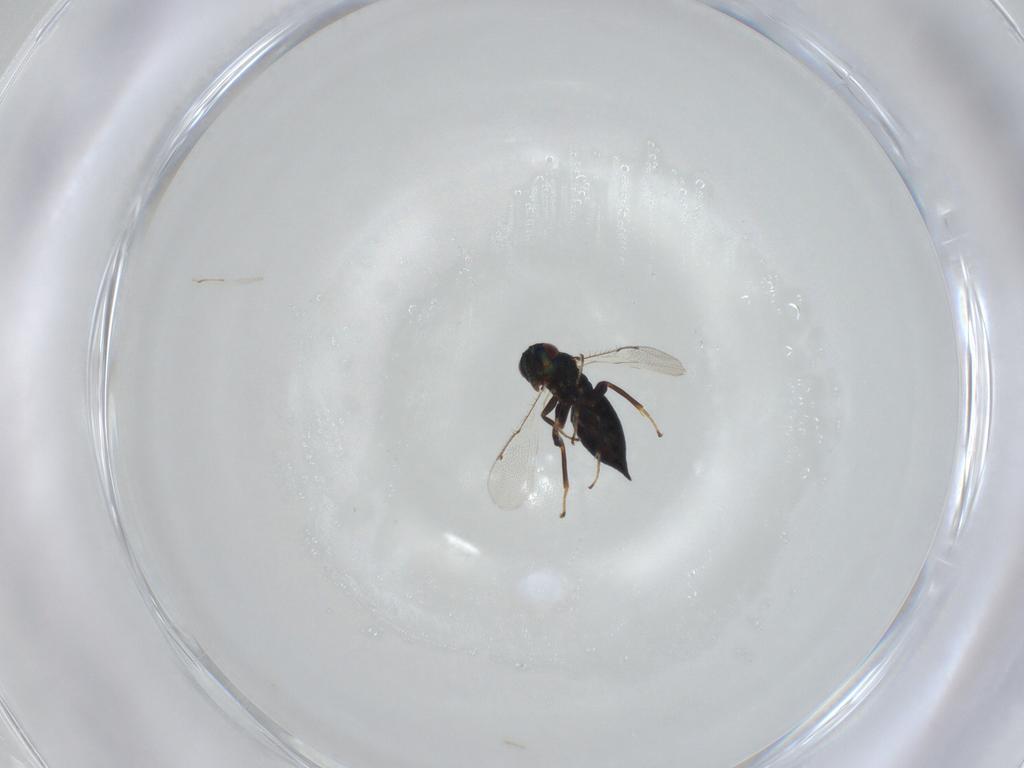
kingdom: Animalia
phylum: Arthropoda
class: Insecta
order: Hymenoptera
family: Ormyridae
